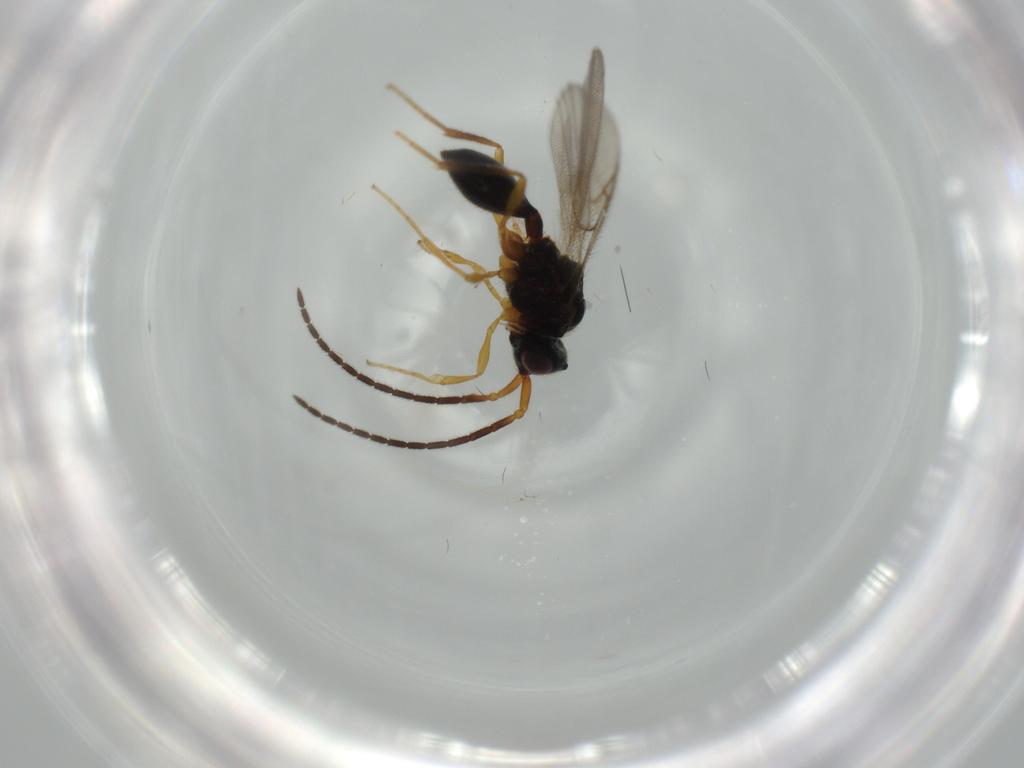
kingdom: Animalia
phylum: Arthropoda
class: Insecta
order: Hymenoptera
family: Diapriidae
